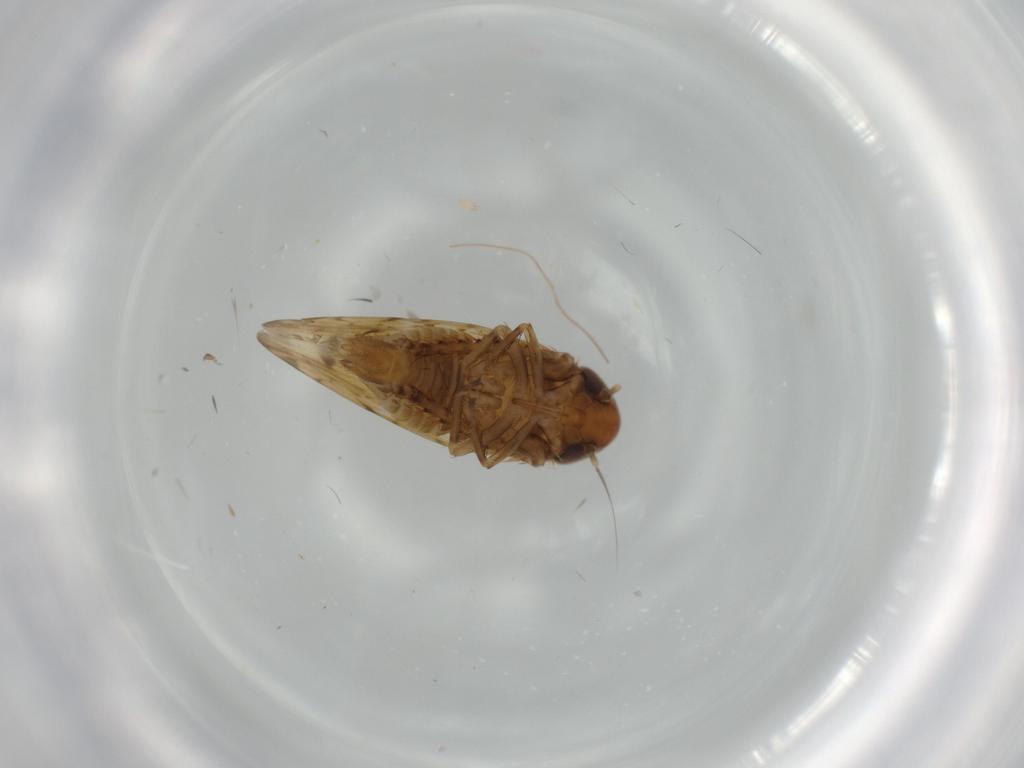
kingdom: Animalia
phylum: Arthropoda
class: Insecta
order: Hemiptera
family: Cicadellidae
